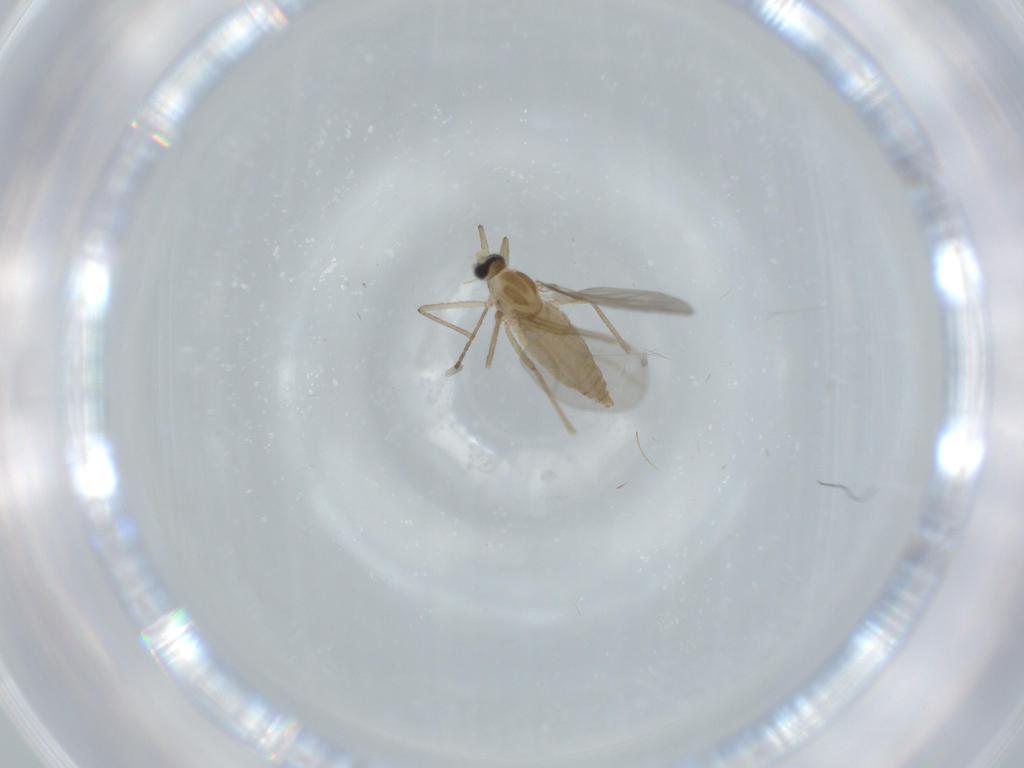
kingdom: Animalia
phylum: Arthropoda
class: Insecta
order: Diptera
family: Cecidomyiidae
